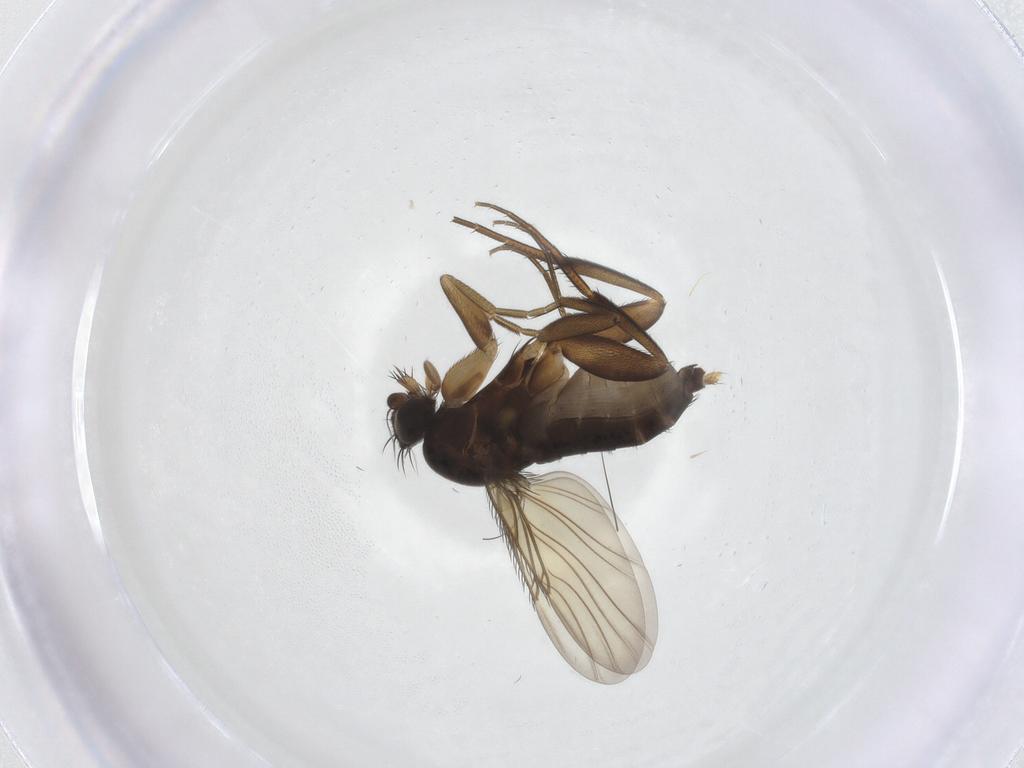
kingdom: Animalia
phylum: Arthropoda
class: Insecta
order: Diptera
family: Phoridae
